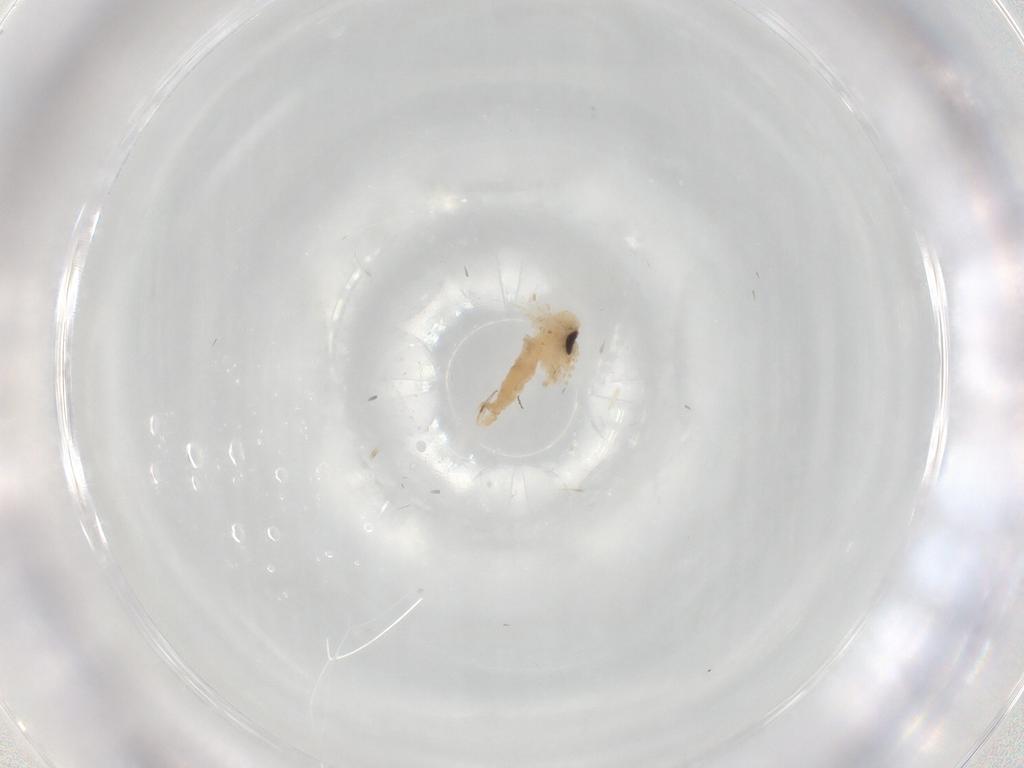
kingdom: Animalia
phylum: Arthropoda
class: Insecta
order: Diptera
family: Psychodidae
